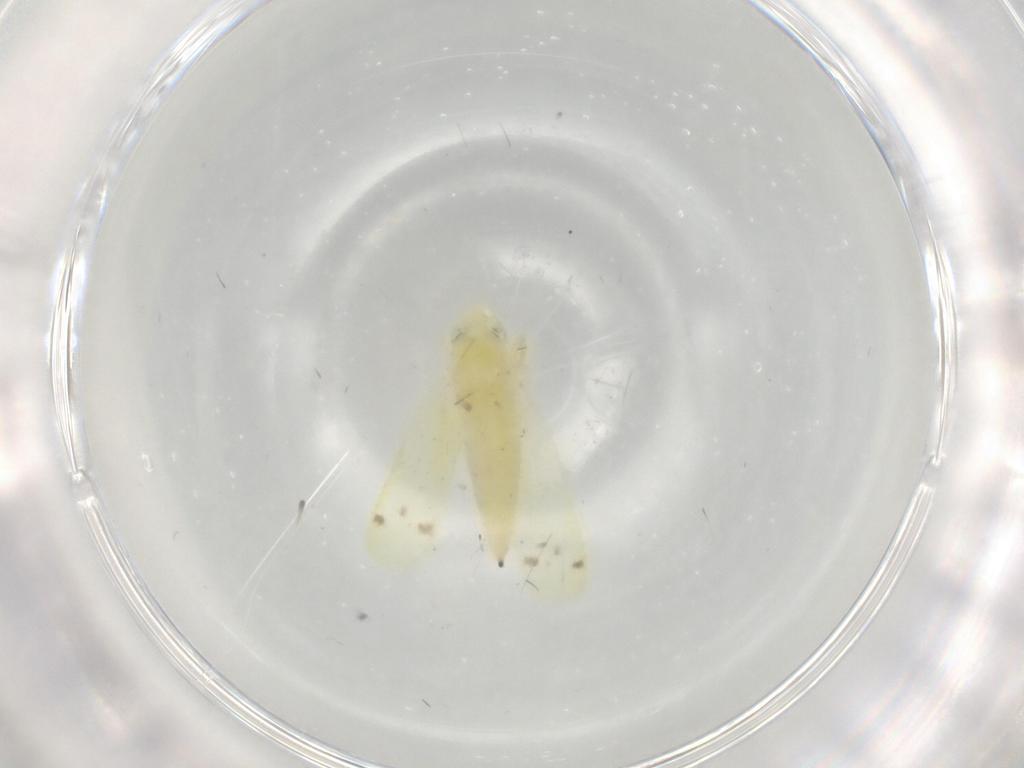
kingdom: Animalia
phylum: Arthropoda
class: Insecta
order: Hemiptera
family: Cicadellidae
